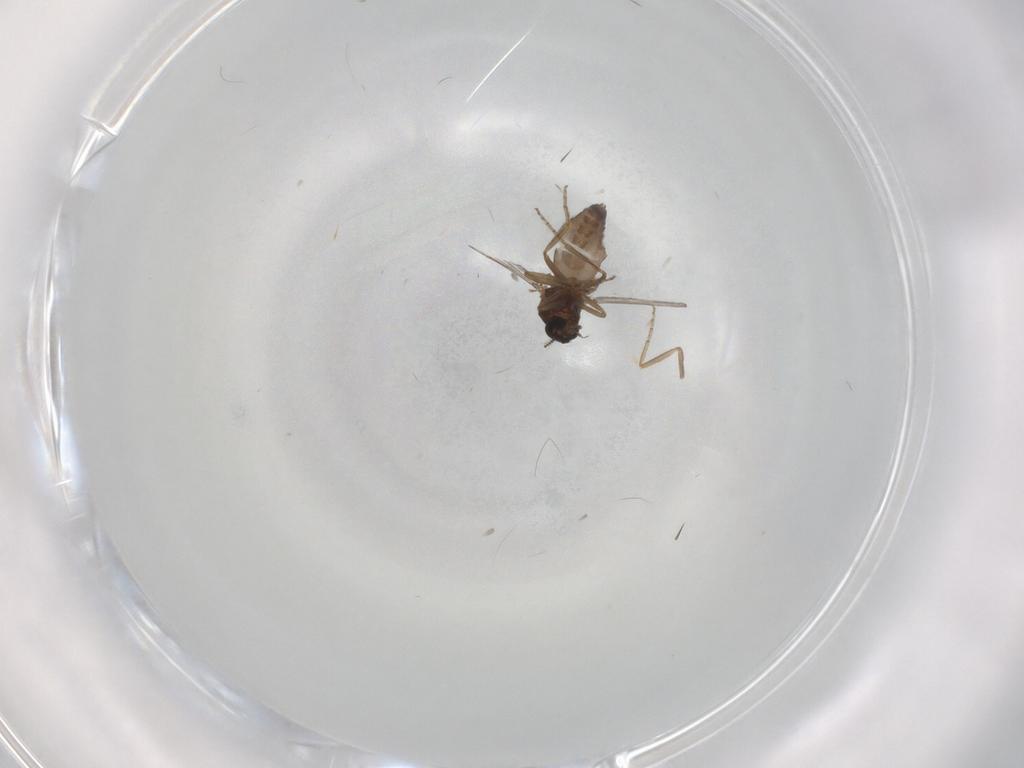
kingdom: Animalia
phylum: Arthropoda
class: Insecta
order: Diptera
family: Ceratopogonidae
